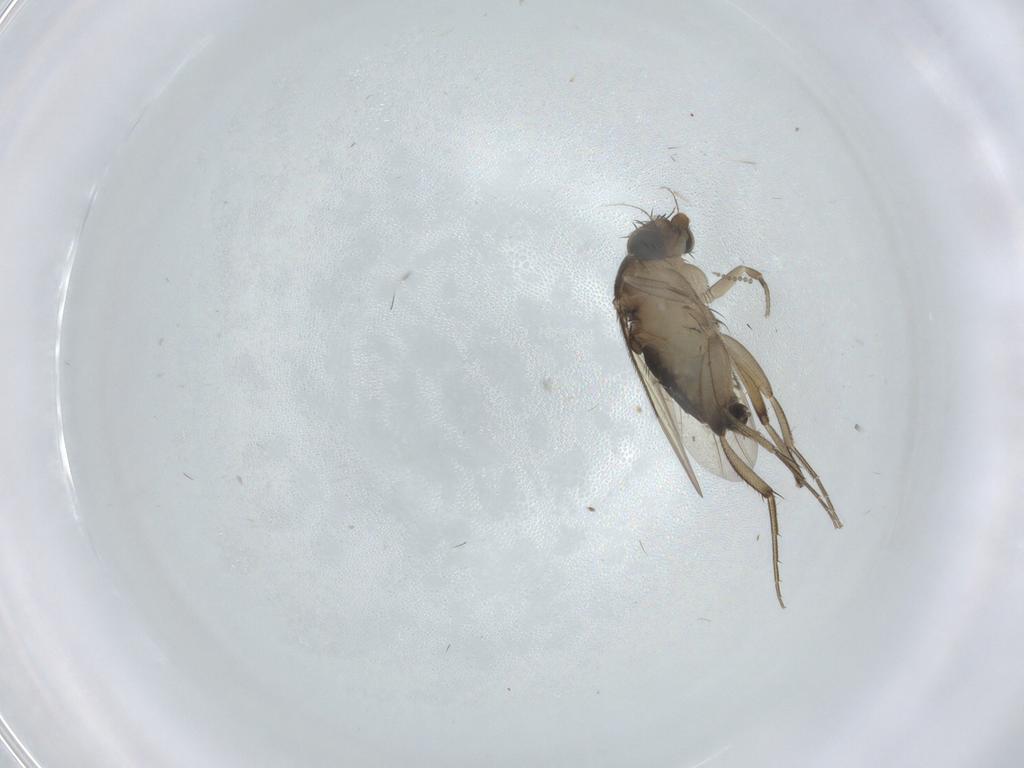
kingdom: Animalia
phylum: Arthropoda
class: Insecta
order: Diptera
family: Phoridae
